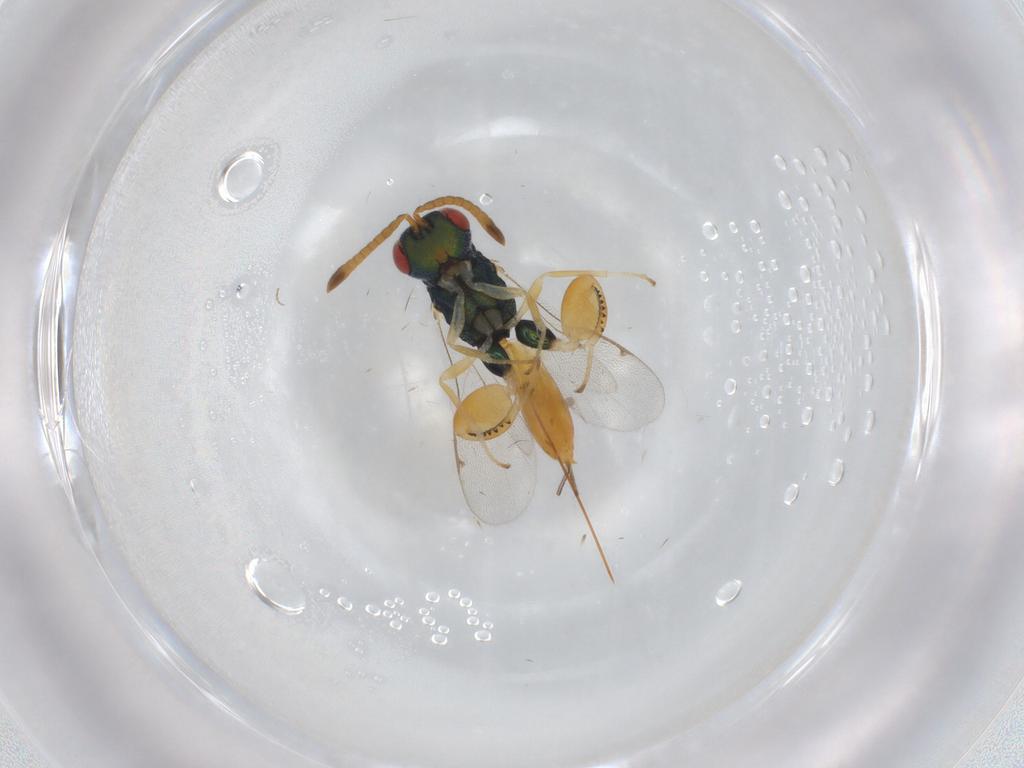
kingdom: Animalia
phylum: Arthropoda
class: Insecta
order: Hymenoptera
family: Torymidae
